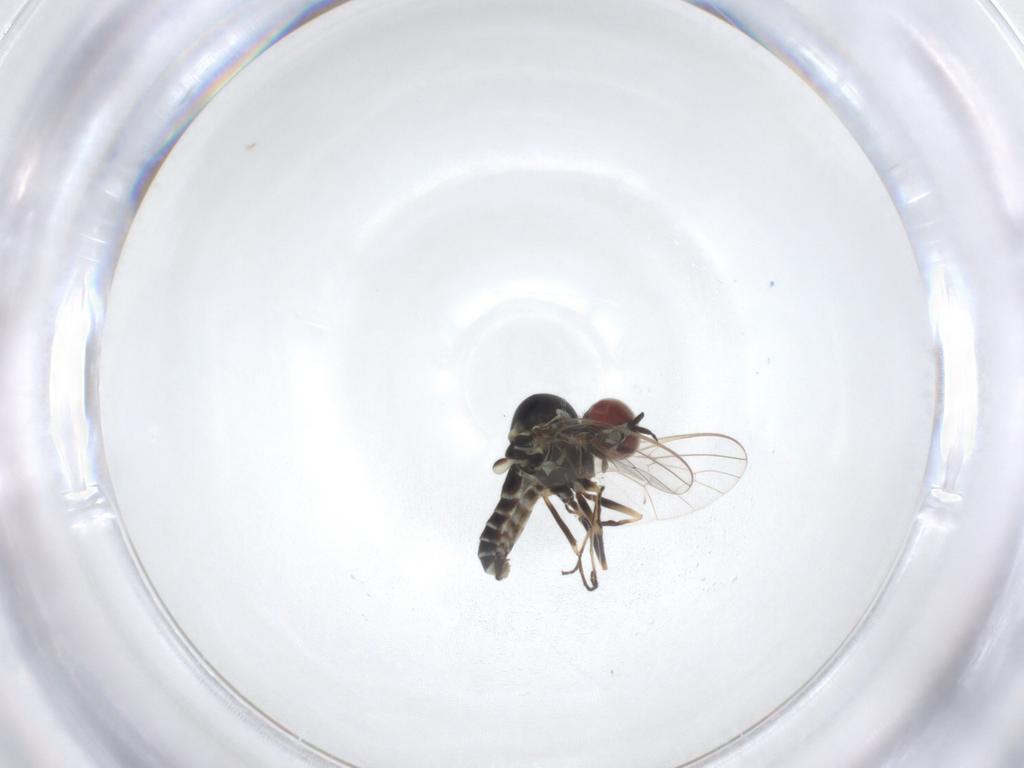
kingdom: Animalia
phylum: Arthropoda
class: Insecta
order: Diptera
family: Bombyliidae
